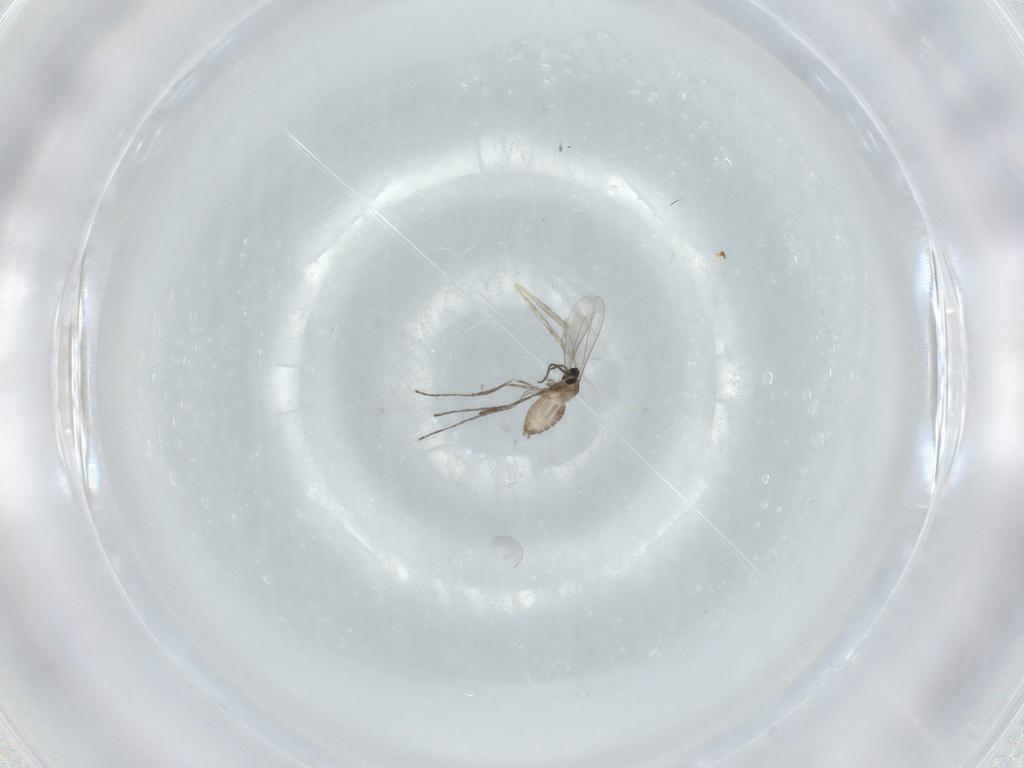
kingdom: Animalia
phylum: Arthropoda
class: Insecta
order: Diptera
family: Cecidomyiidae
